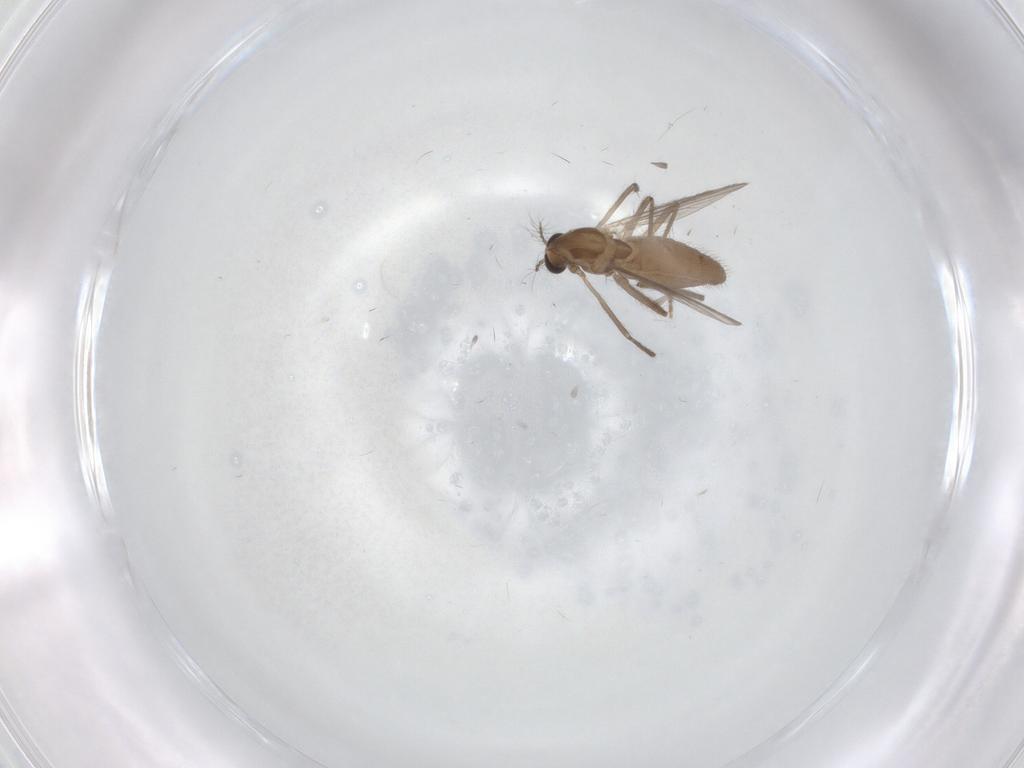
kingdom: Animalia
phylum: Arthropoda
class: Insecta
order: Diptera
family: Chironomidae
